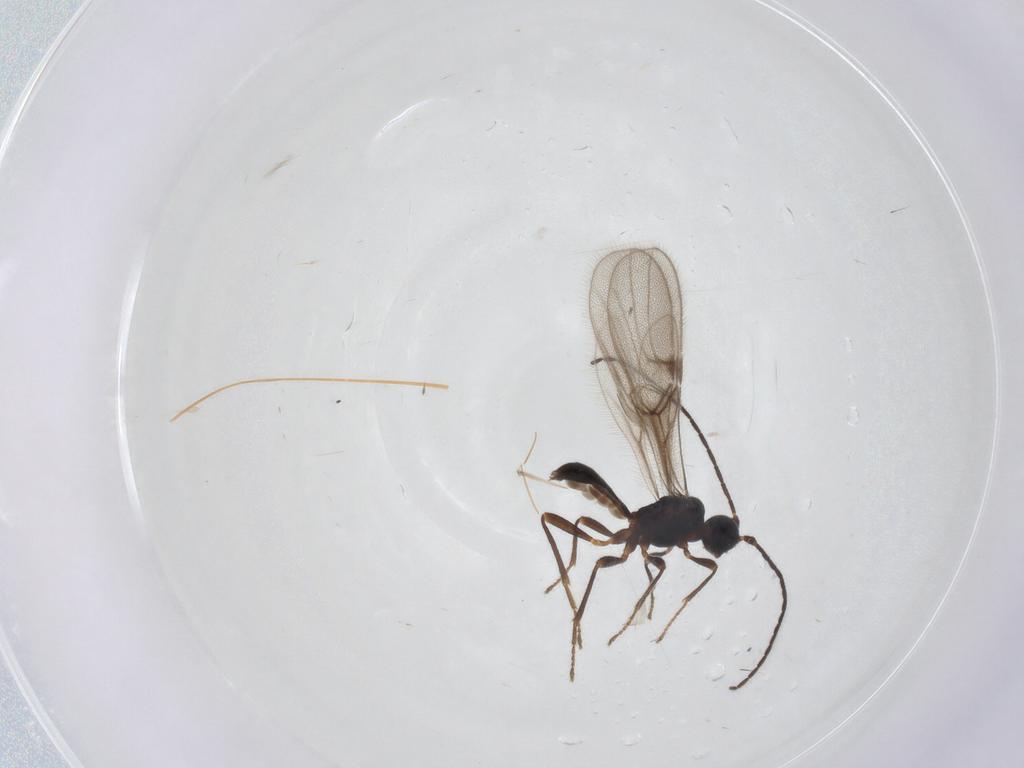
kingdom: Animalia
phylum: Arthropoda
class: Insecta
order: Hymenoptera
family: Braconidae
